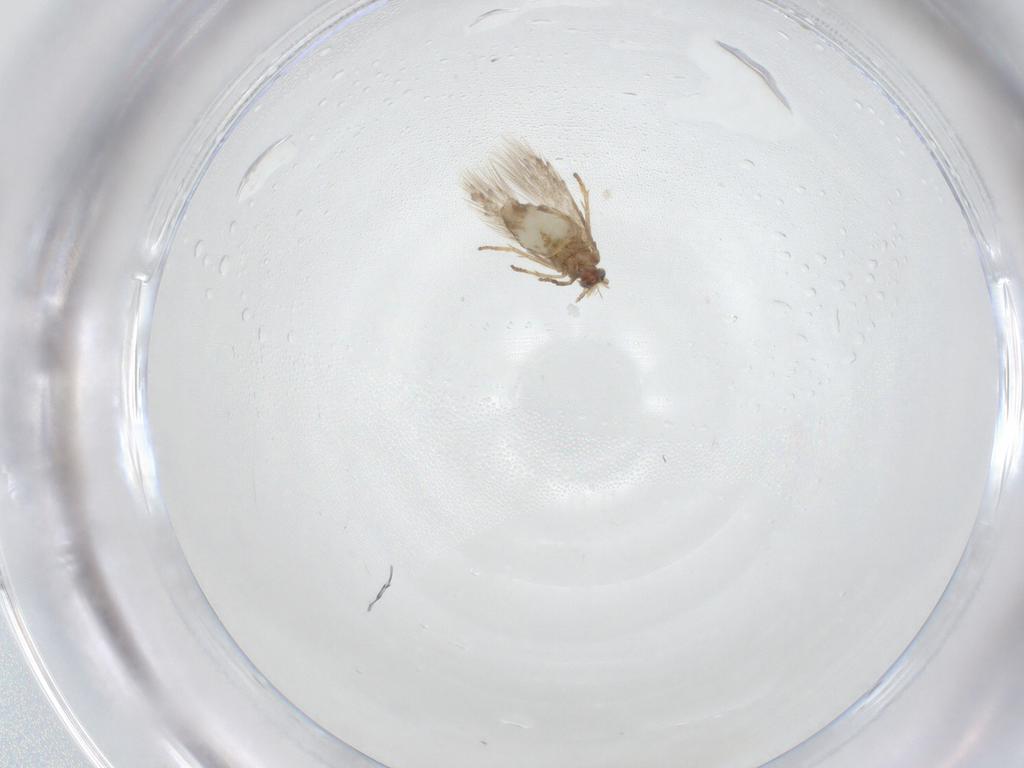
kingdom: Animalia
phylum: Arthropoda
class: Insecta
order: Lepidoptera
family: Nepticulidae
